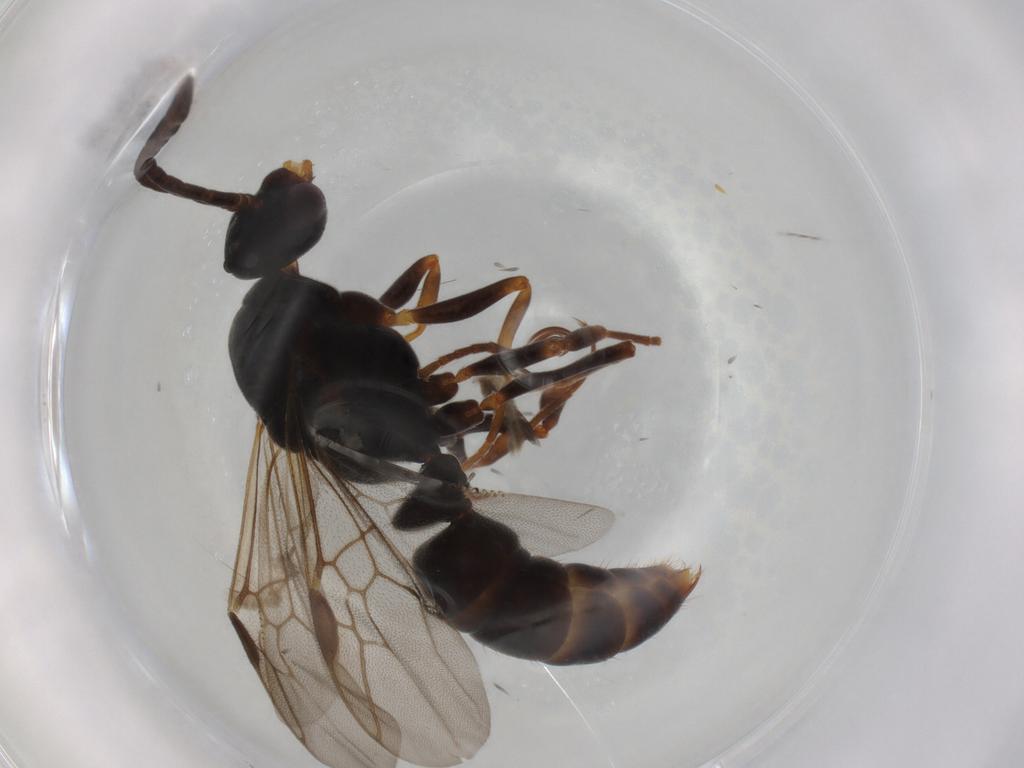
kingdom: Animalia
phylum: Arthropoda
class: Insecta
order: Hymenoptera
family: Formicidae
